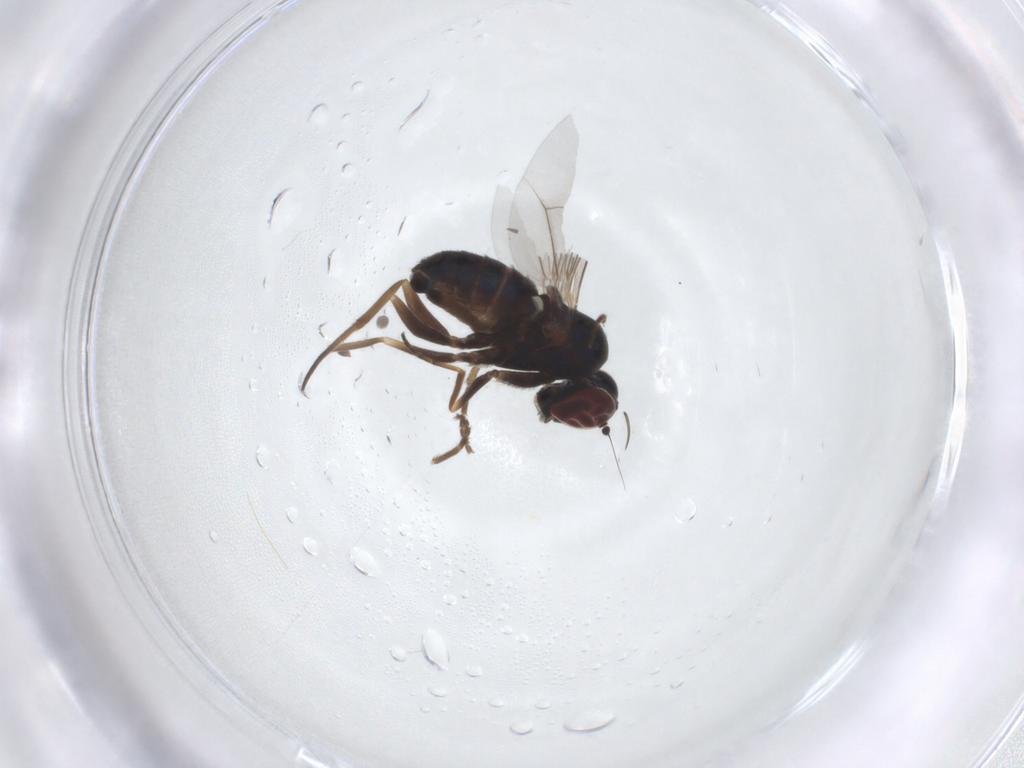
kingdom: Animalia
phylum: Arthropoda
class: Insecta
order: Diptera
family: Dolichopodidae
